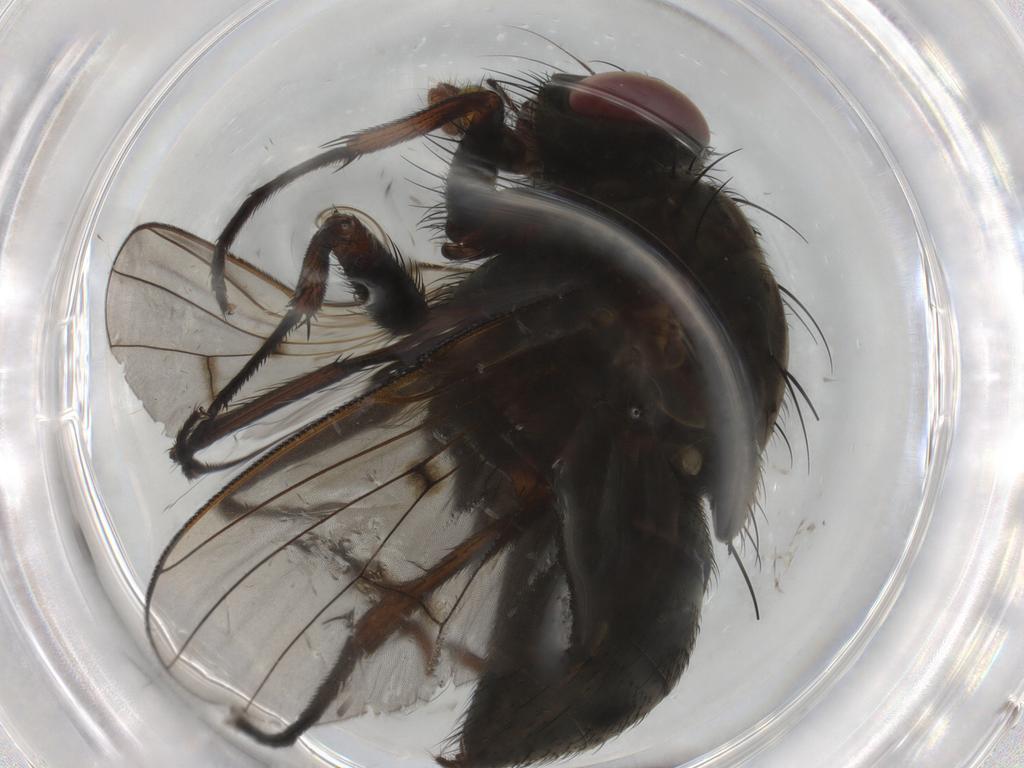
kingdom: Animalia
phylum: Arthropoda
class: Insecta
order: Diptera
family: Muscidae
